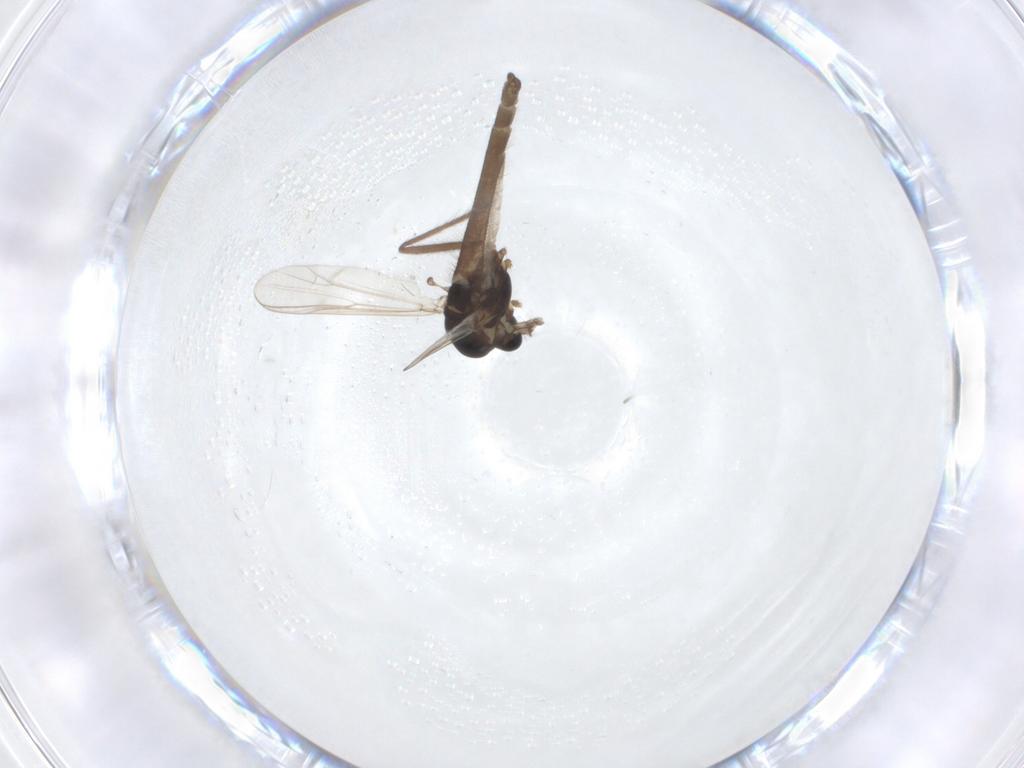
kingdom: Animalia
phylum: Arthropoda
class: Insecta
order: Diptera
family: Chironomidae
